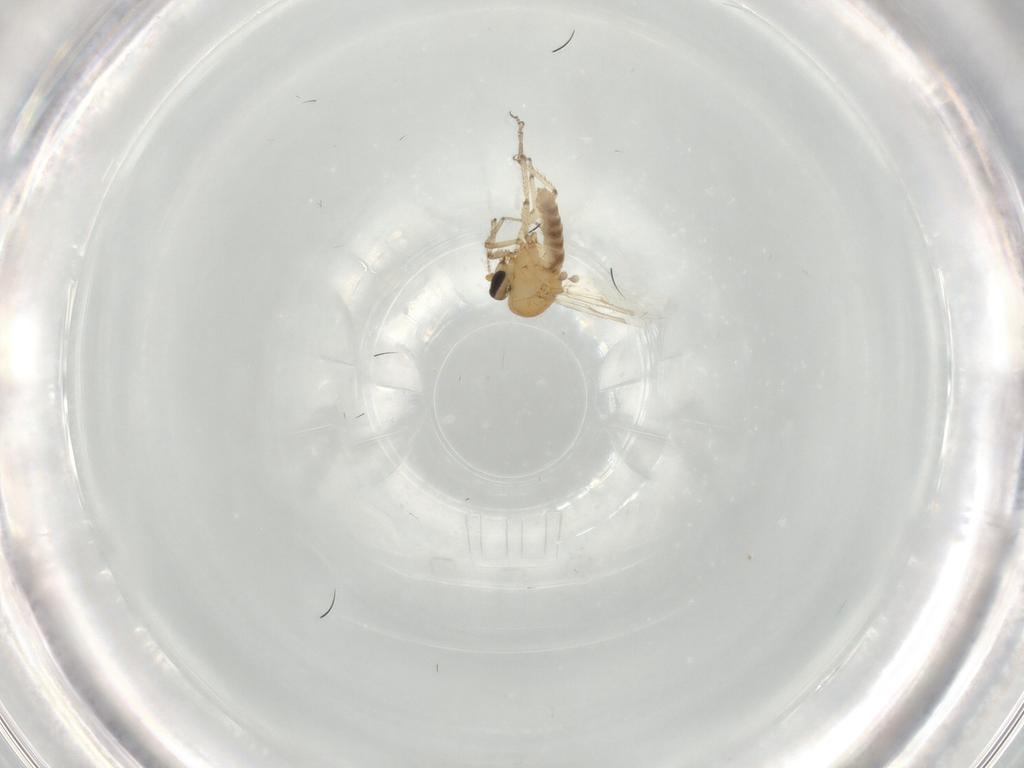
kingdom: Animalia
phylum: Arthropoda
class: Insecta
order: Diptera
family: Ceratopogonidae
